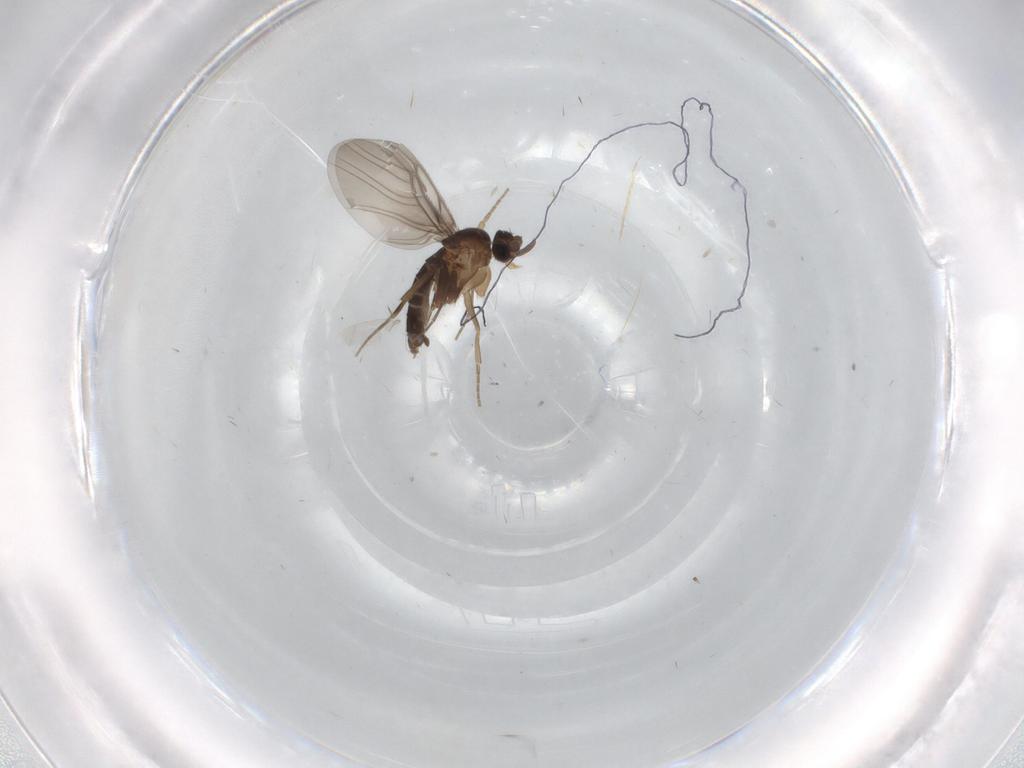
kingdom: Animalia
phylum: Arthropoda
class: Insecta
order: Diptera
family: Phoridae
